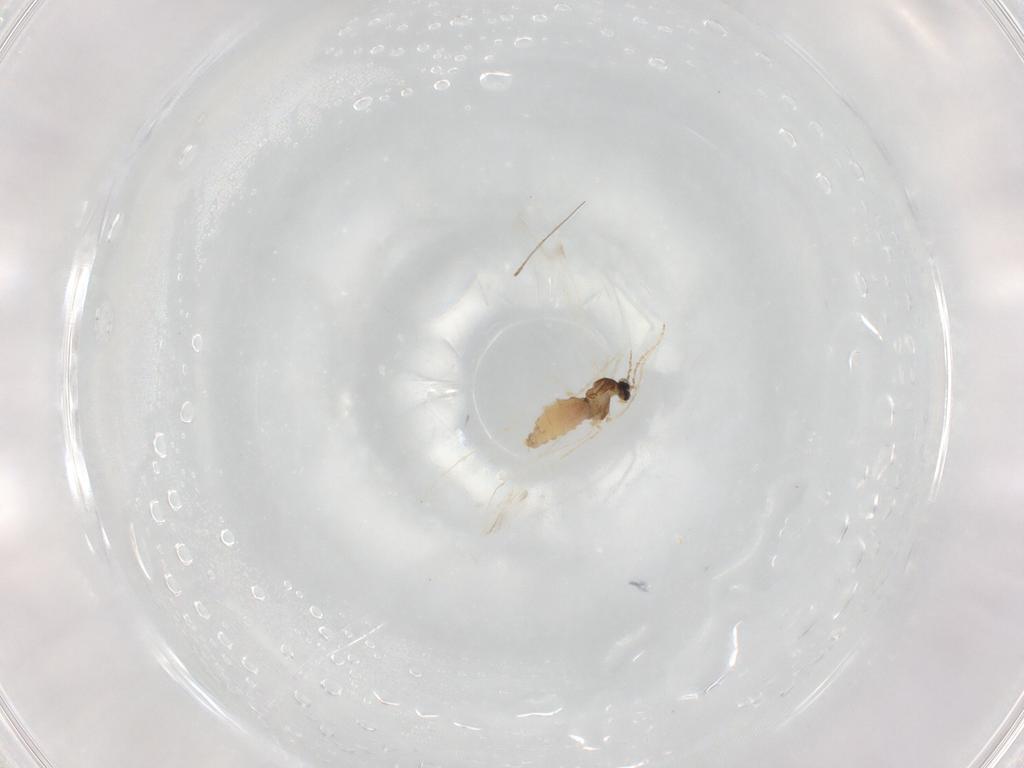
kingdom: Animalia
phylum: Arthropoda
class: Insecta
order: Diptera
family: Cecidomyiidae
